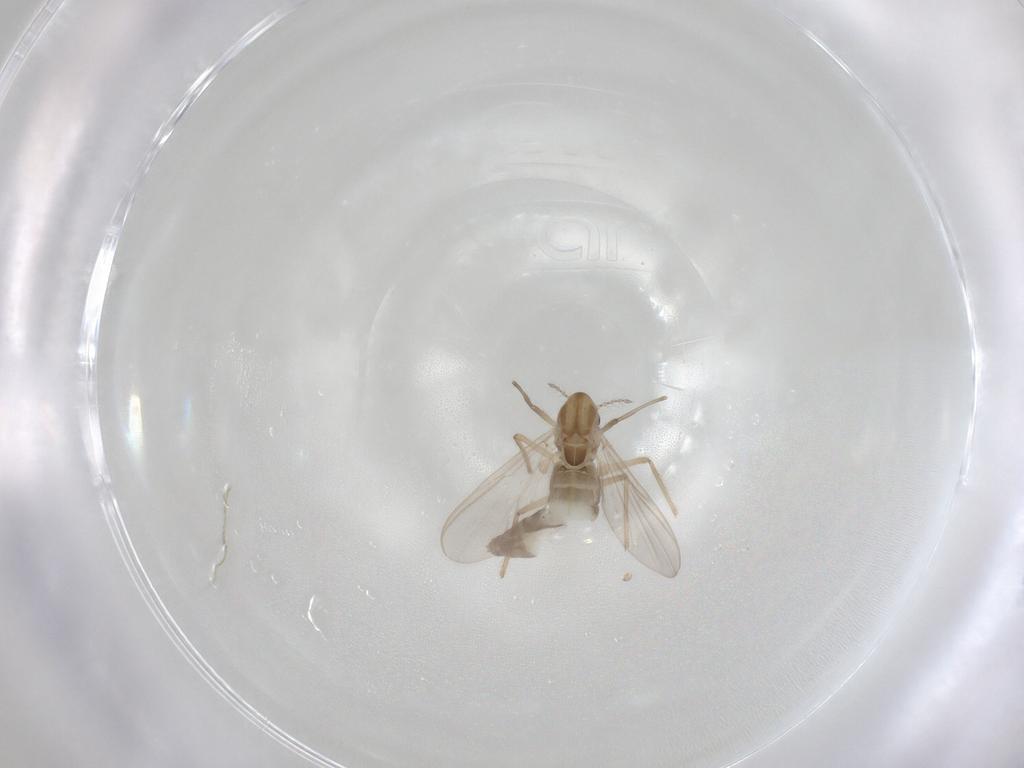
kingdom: Animalia
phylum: Arthropoda
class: Insecta
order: Diptera
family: Chironomidae
